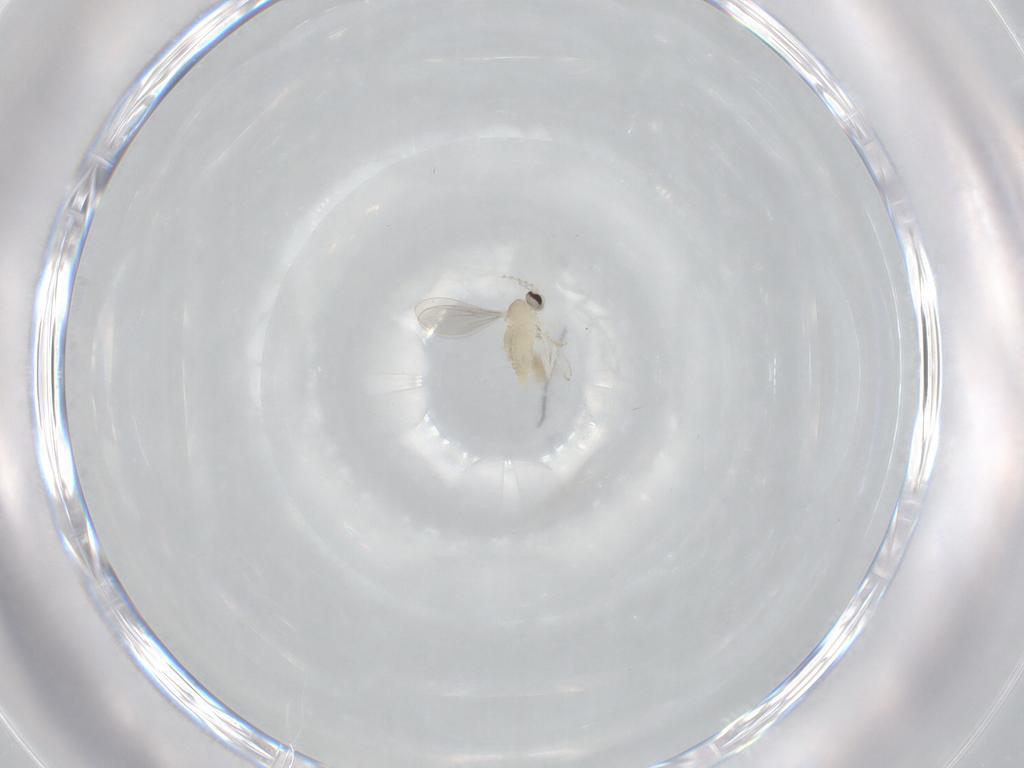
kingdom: Animalia
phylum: Arthropoda
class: Insecta
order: Diptera
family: Cecidomyiidae
